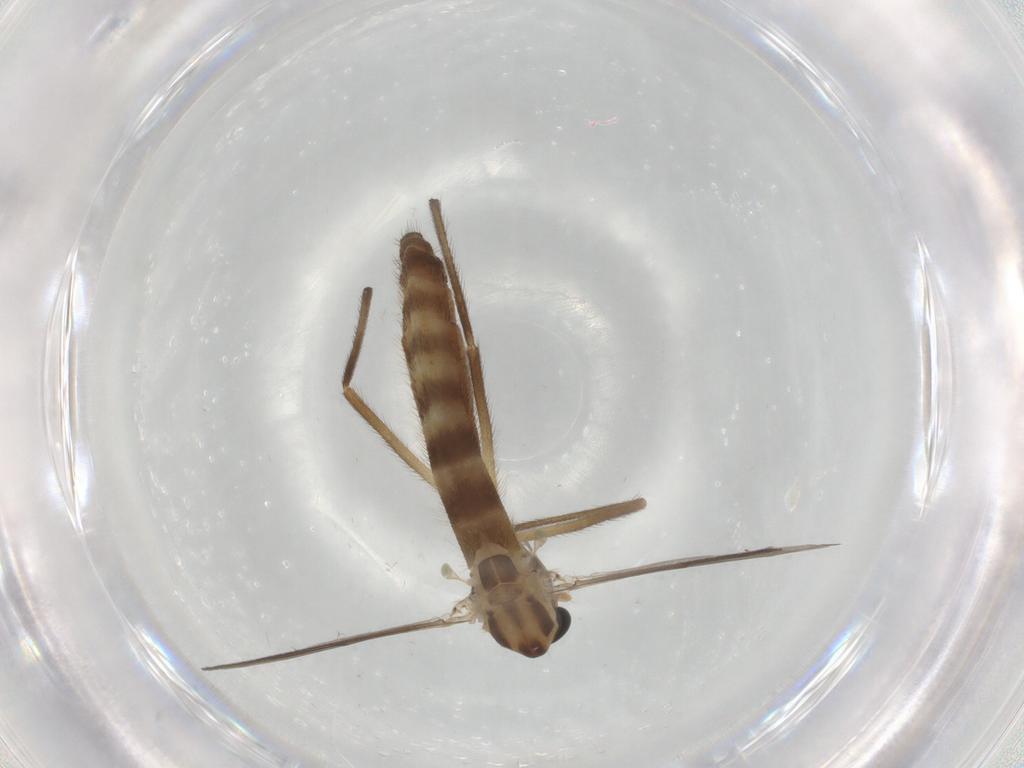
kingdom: Animalia
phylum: Arthropoda
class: Insecta
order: Diptera
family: Chironomidae
